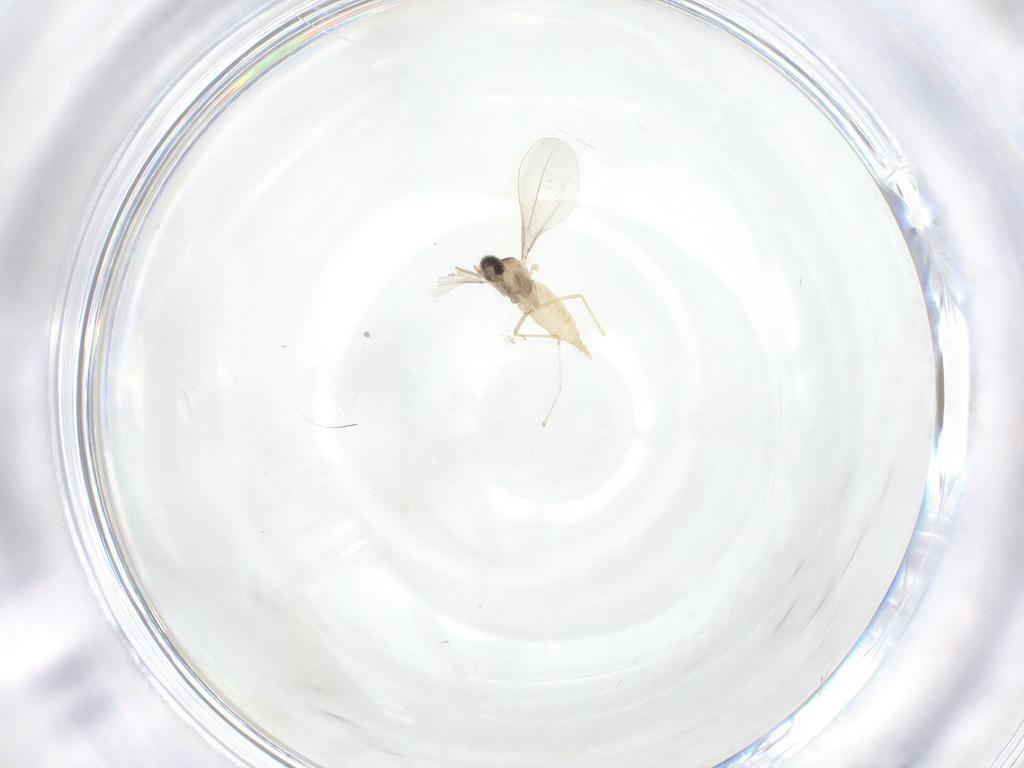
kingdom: Animalia
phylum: Arthropoda
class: Insecta
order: Diptera
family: Cecidomyiidae
